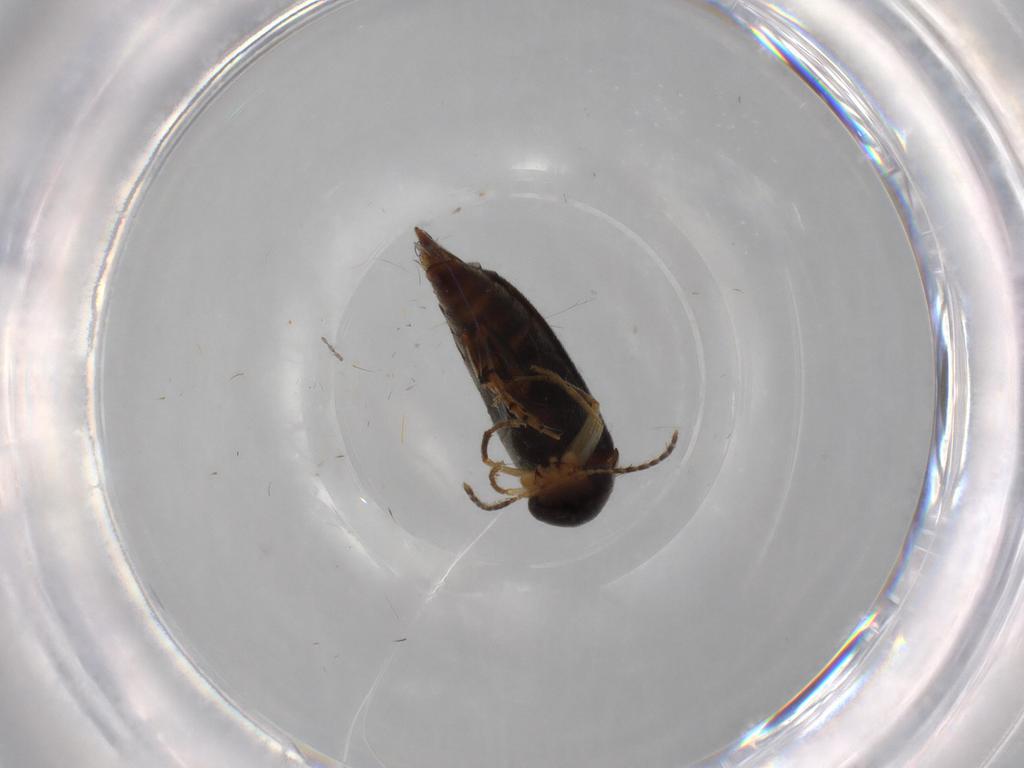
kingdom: Animalia
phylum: Arthropoda
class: Insecta
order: Coleoptera
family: Mordellidae
